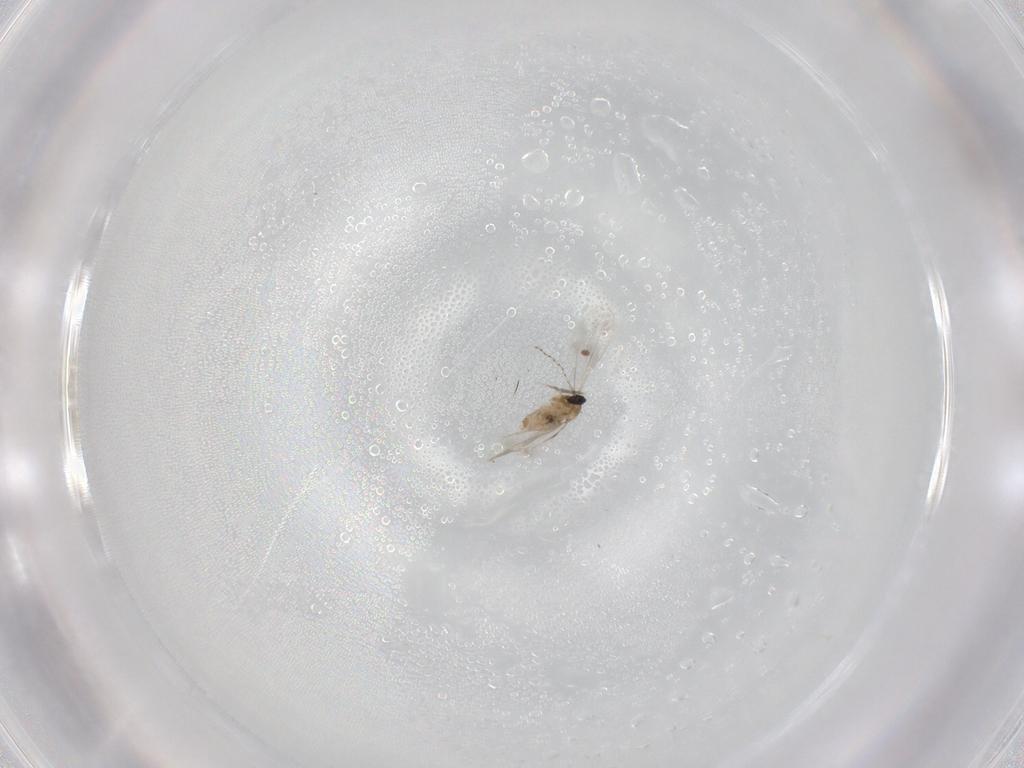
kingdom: Animalia
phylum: Arthropoda
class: Insecta
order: Diptera
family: Cecidomyiidae
